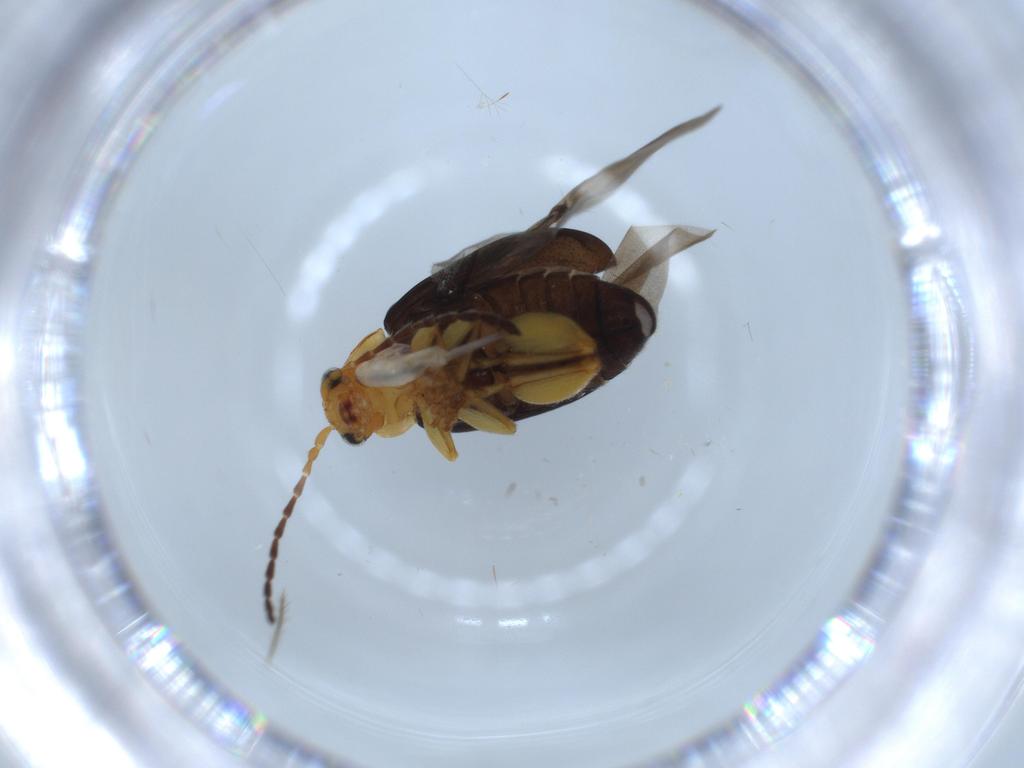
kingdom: Animalia
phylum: Arthropoda
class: Insecta
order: Coleoptera
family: Chrysomelidae
